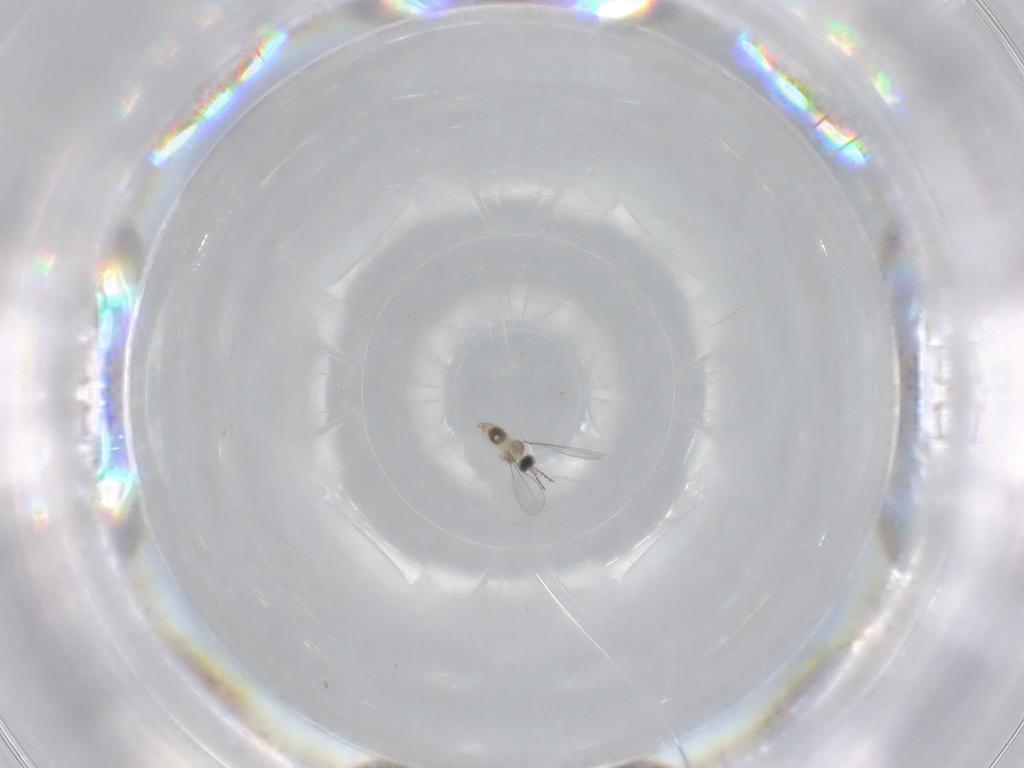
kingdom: Animalia
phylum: Arthropoda
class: Insecta
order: Diptera
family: Cecidomyiidae
